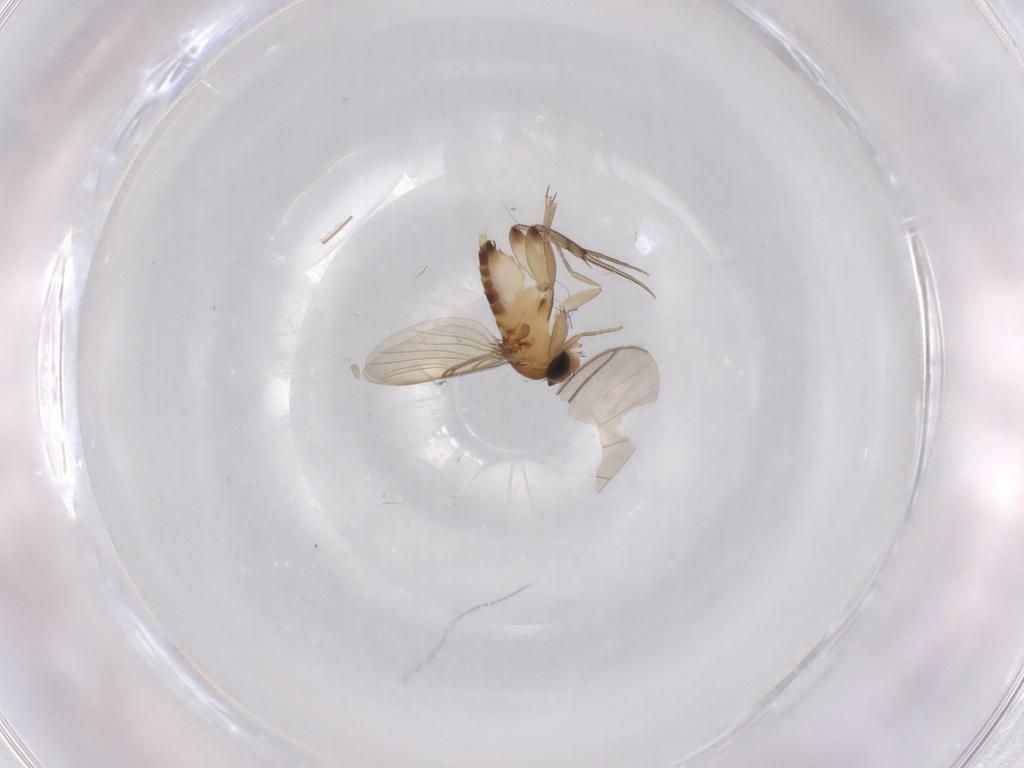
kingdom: Animalia
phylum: Arthropoda
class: Insecta
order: Diptera
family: Phoridae
